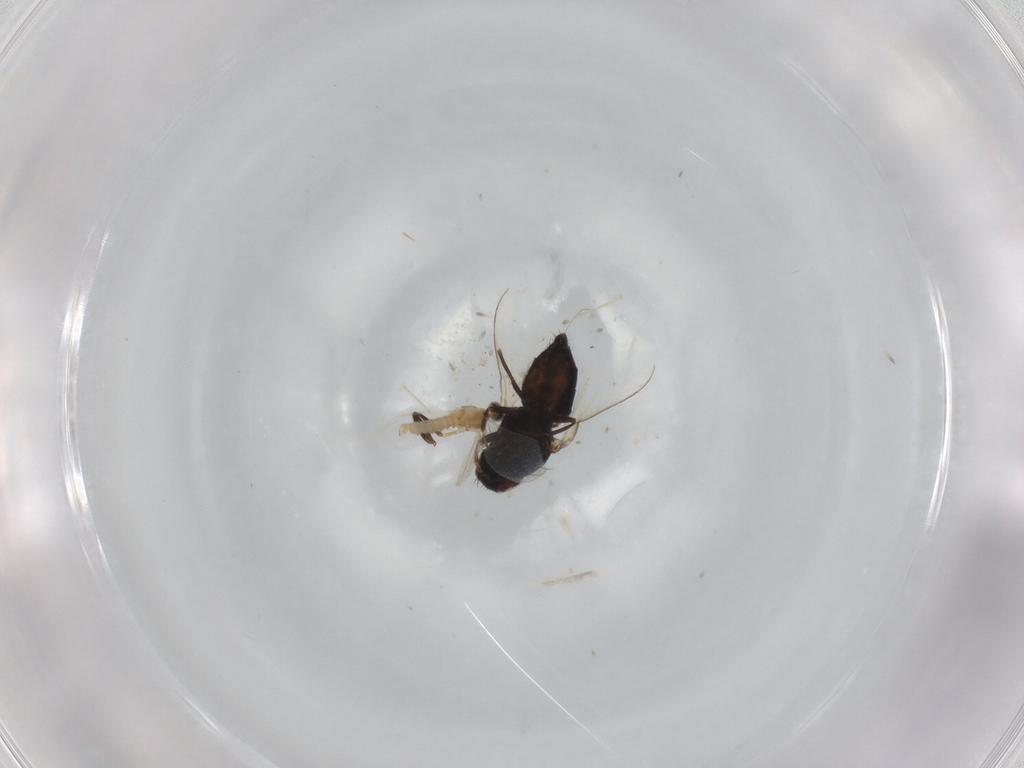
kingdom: Animalia
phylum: Arthropoda
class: Insecta
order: Diptera
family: Carnidae
